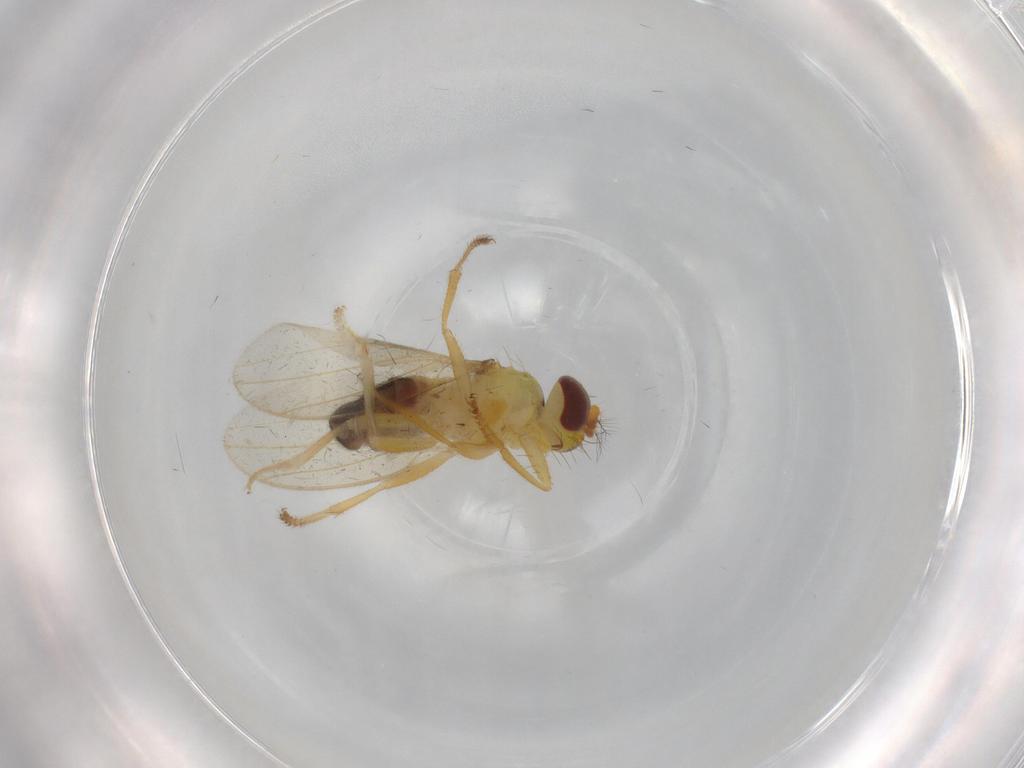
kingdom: Animalia
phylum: Arthropoda
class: Insecta
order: Diptera
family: Periscelididae
